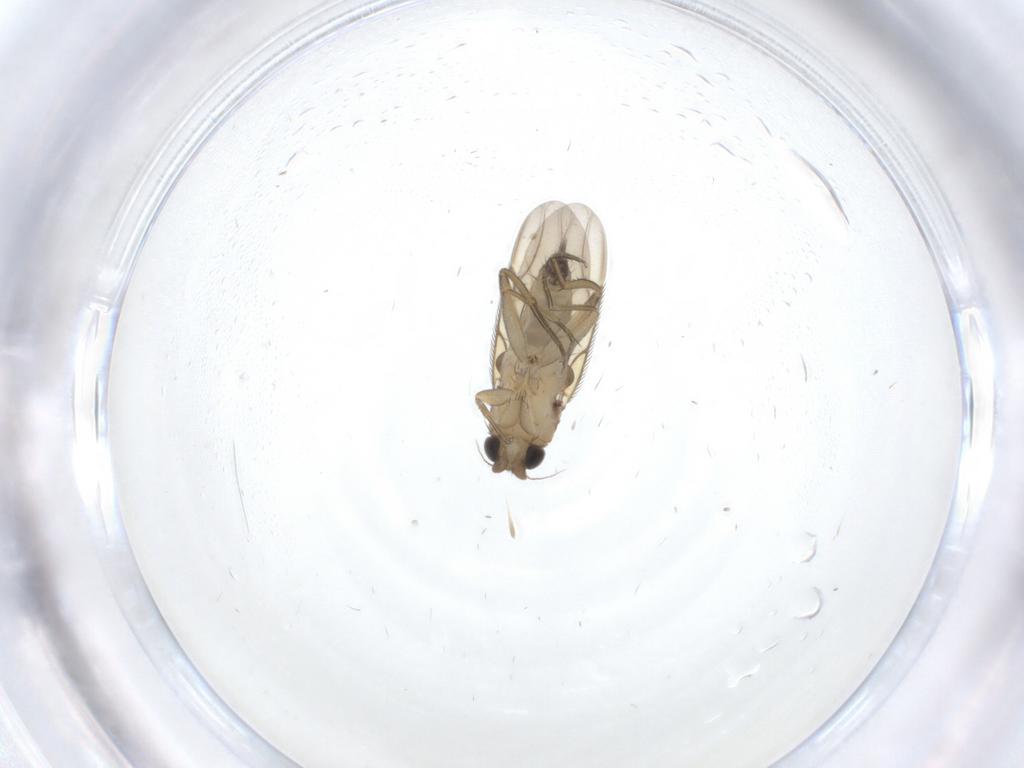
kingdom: Animalia
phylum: Arthropoda
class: Insecta
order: Diptera
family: Phoridae
